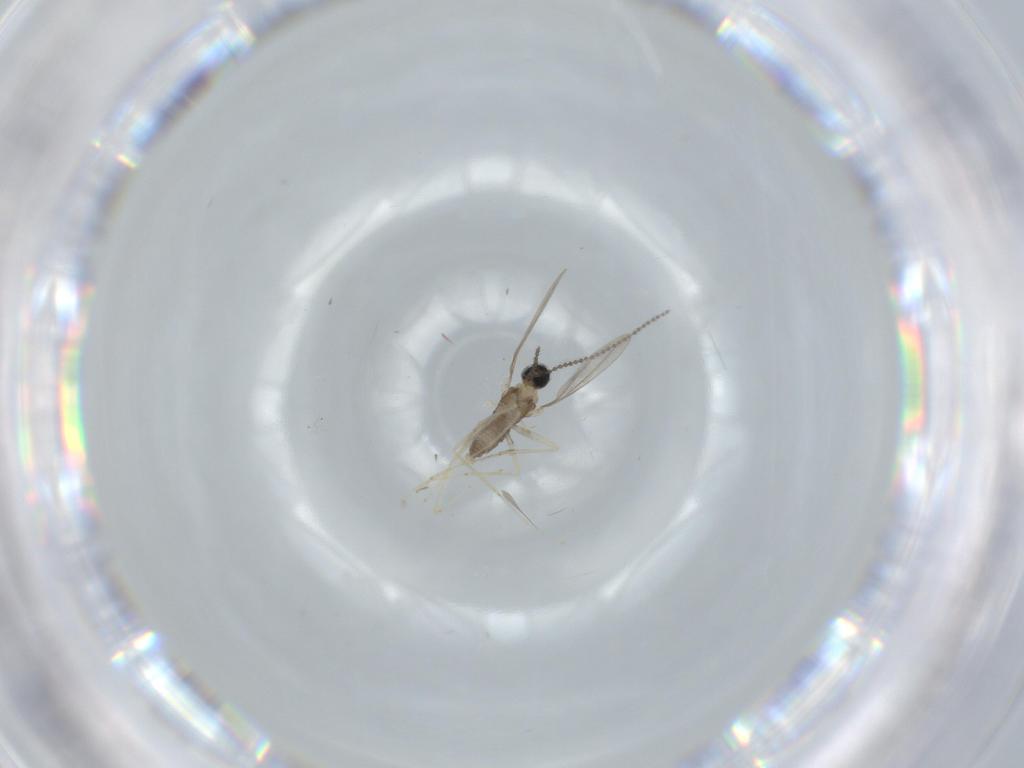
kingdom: Animalia
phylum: Arthropoda
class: Insecta
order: Diptera
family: Cecidomyiidae
